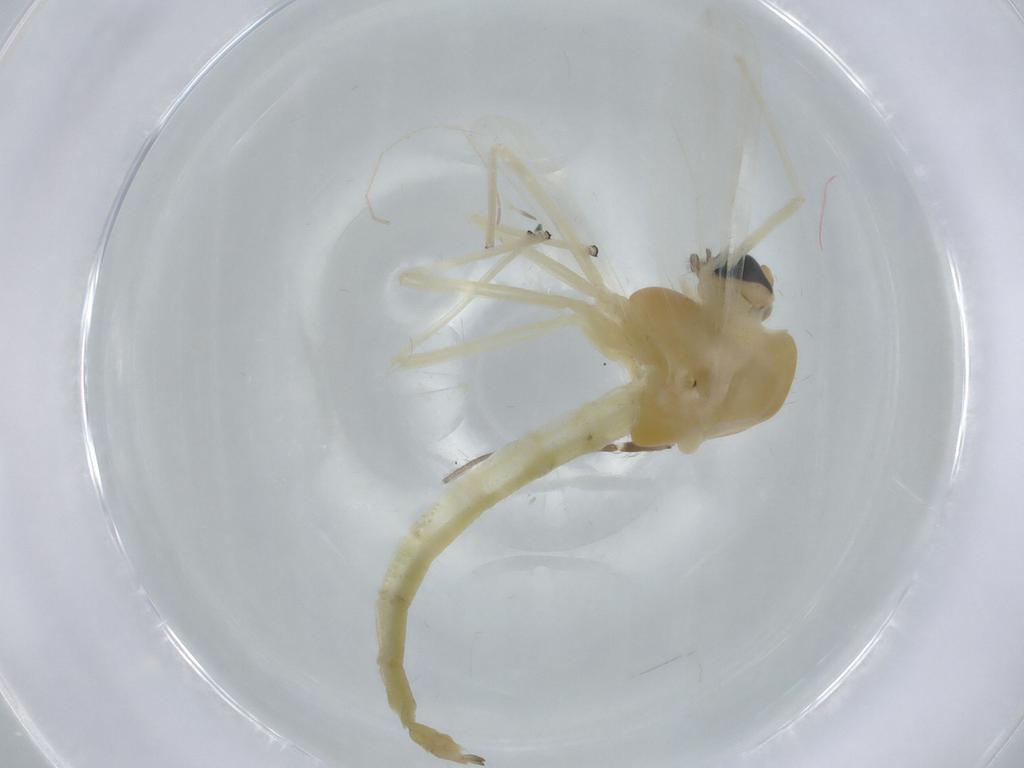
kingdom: Animalia
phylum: Arthropoda
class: Insecta
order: Diptera
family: Chironomidae
